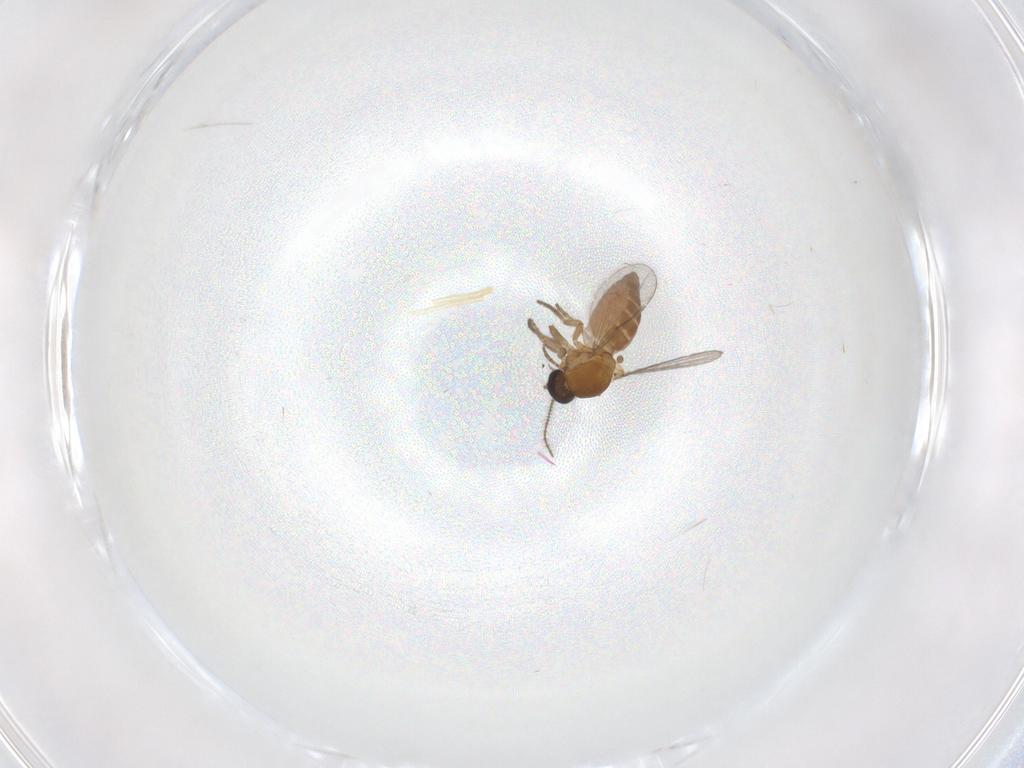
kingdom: Animalia
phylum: Arthropoda
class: Insecta
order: Diptera
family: Ceratopogonidae
